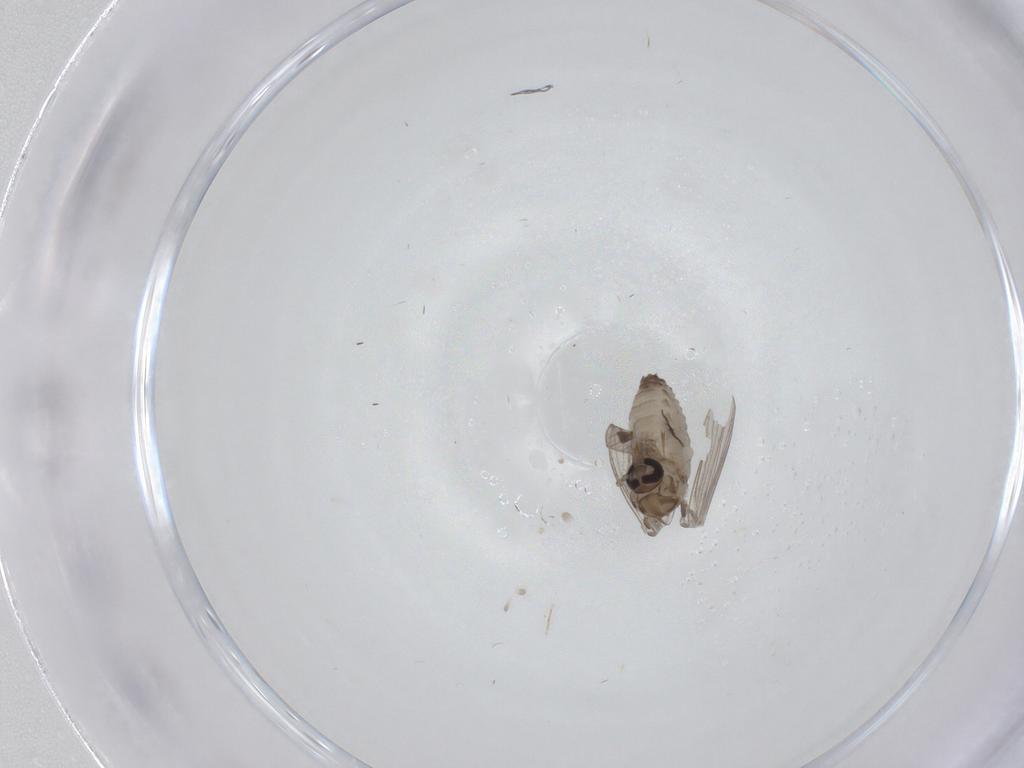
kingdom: Animalia
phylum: Arthropoda
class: Insecta
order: Diptera
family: Psychodidae
